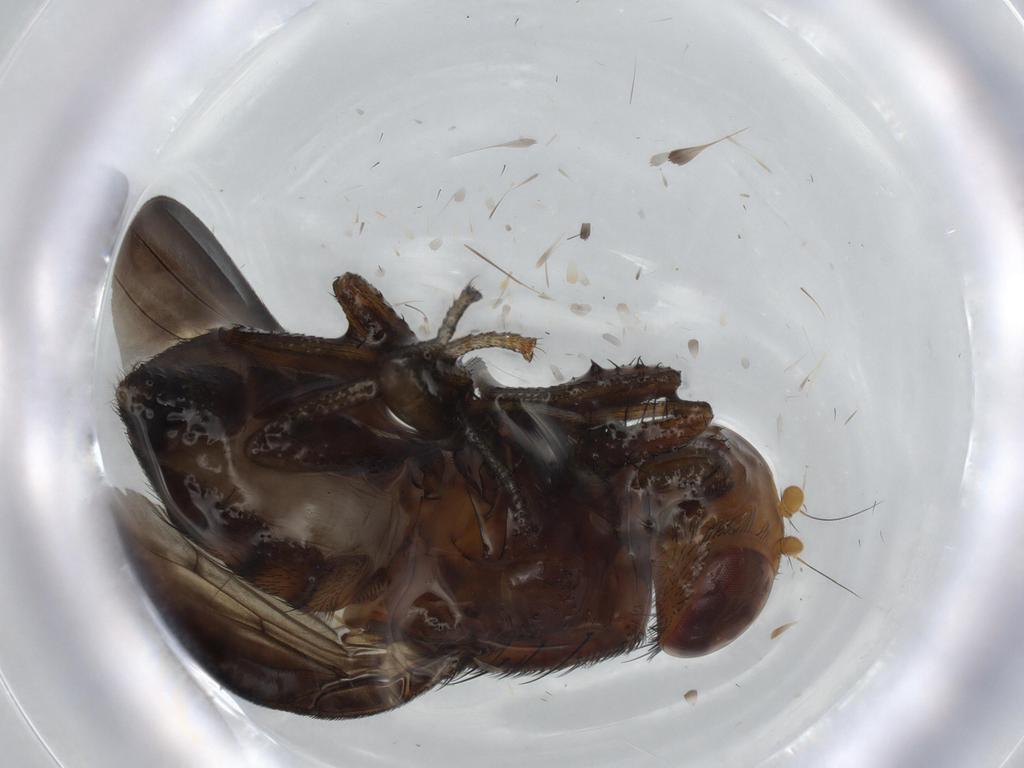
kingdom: Animalia
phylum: Arthropoda
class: Insecta
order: Diptera
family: Ceratopogonidae
